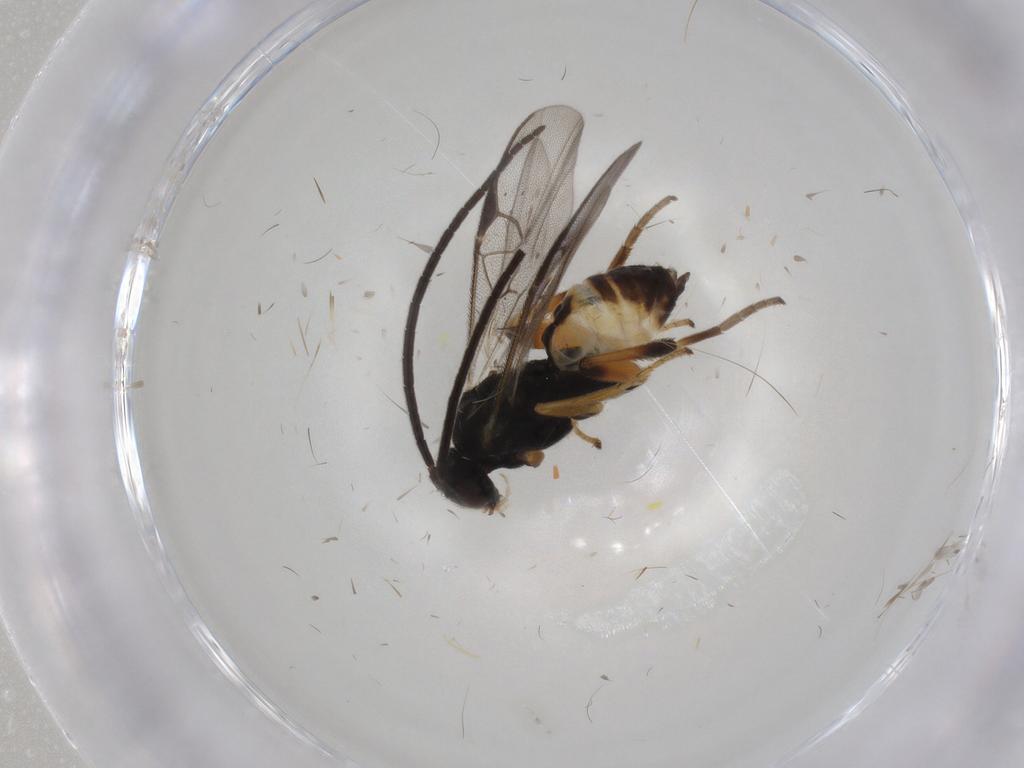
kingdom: Animalia
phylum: Arthropoda
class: Insecta
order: Hymenoptera
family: Braconidae
